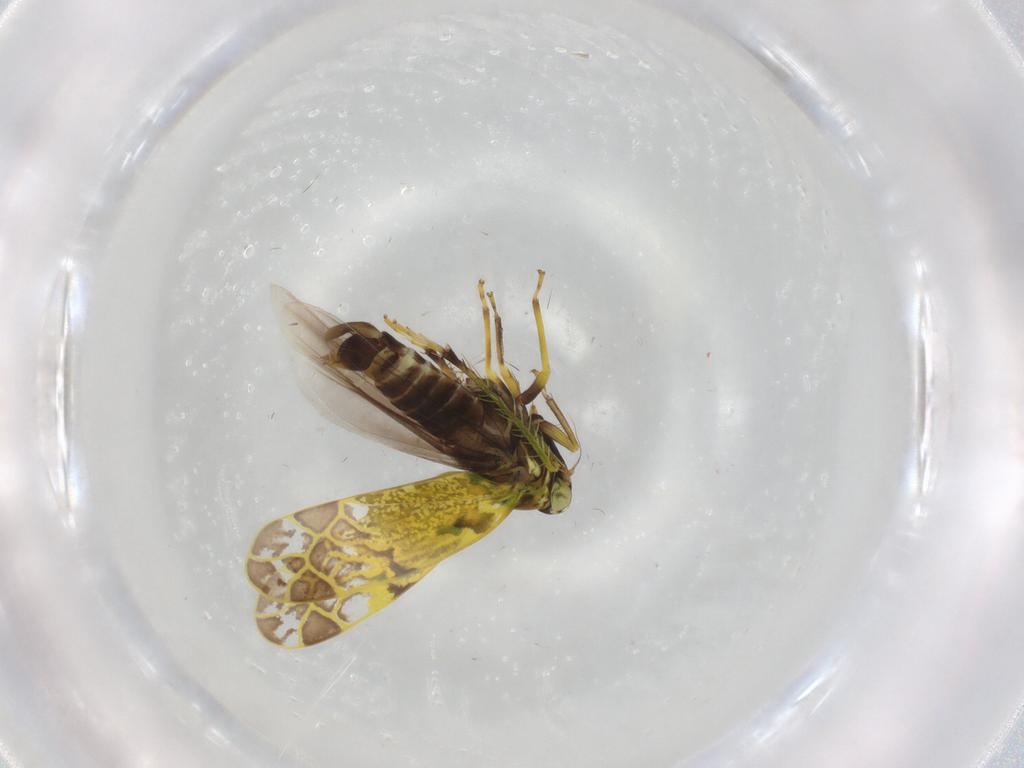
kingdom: Animalia
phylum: Arthropoda
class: Insecta
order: Hemiptera
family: Cicadellidae
